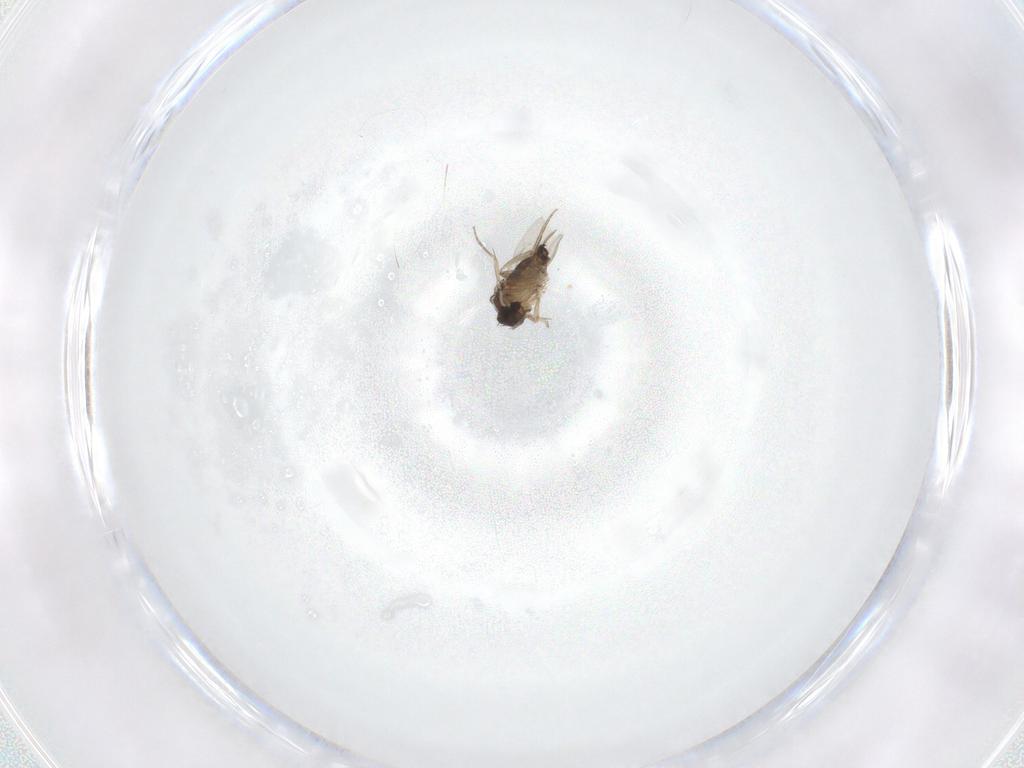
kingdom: Animalia
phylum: Arthropoda
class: Insecta
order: Diptera
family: Phoridae
